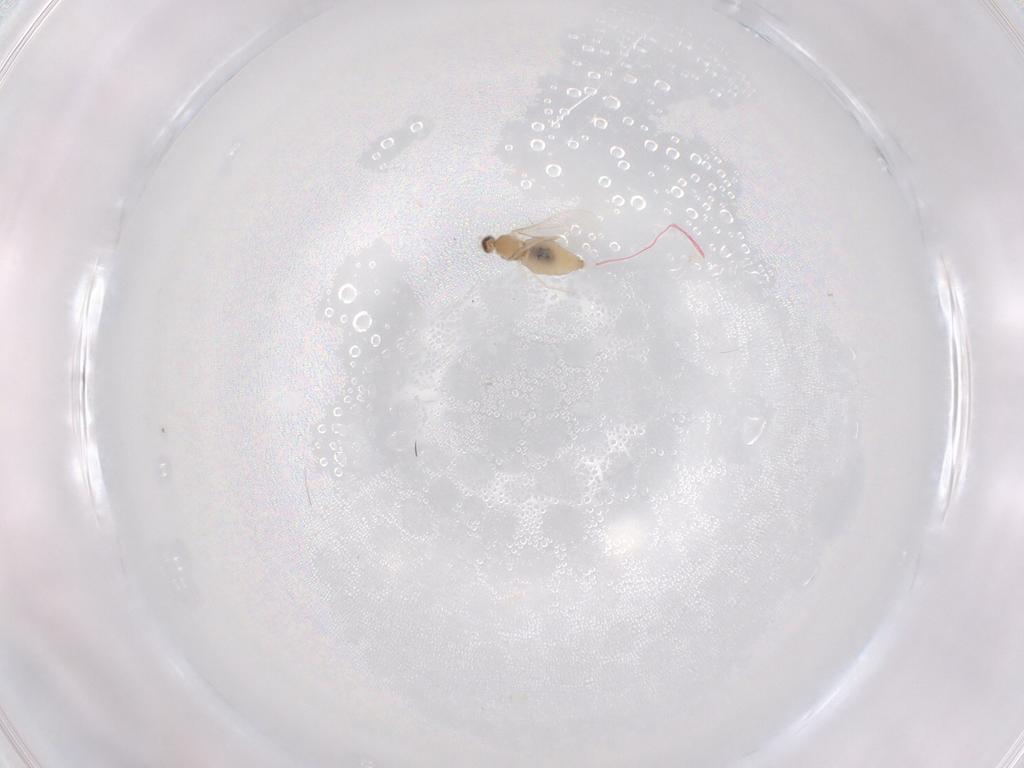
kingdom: Animalia
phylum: Arthropoda
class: Insecta
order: Diptera
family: Cecidomyiidae
